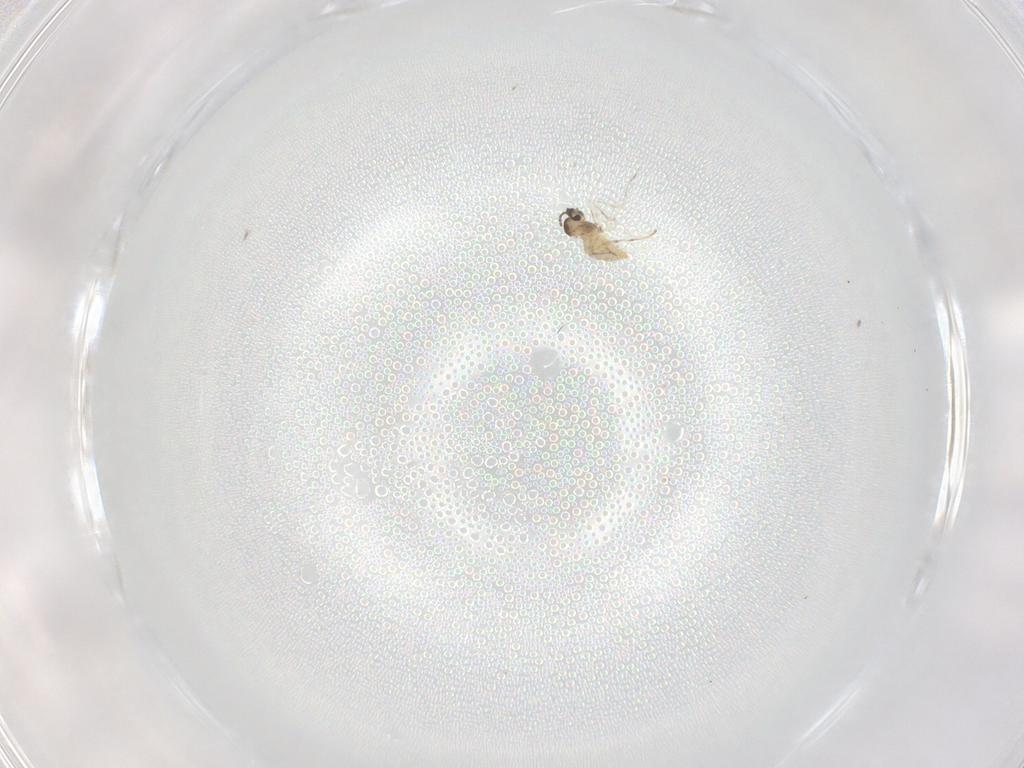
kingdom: Animalia
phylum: Arthropoda
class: Insecta
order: Diptera
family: Cecidomyiidae
